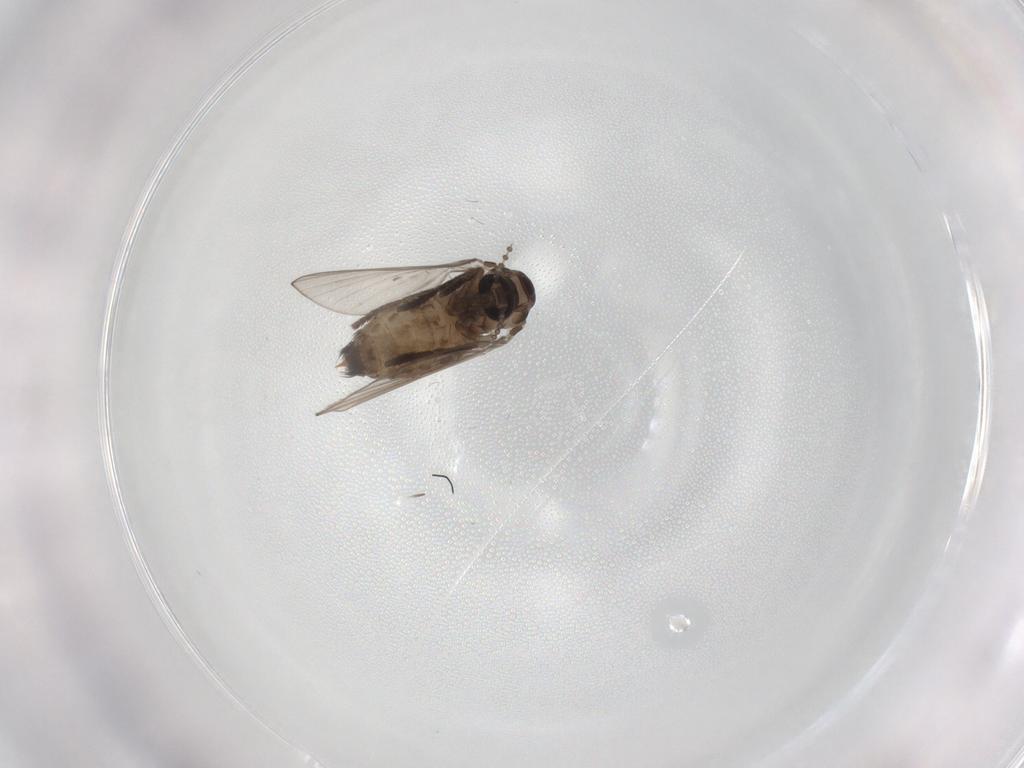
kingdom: Animalia
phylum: Arthropoda
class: Insecta
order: Diptera
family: Psychodidae
